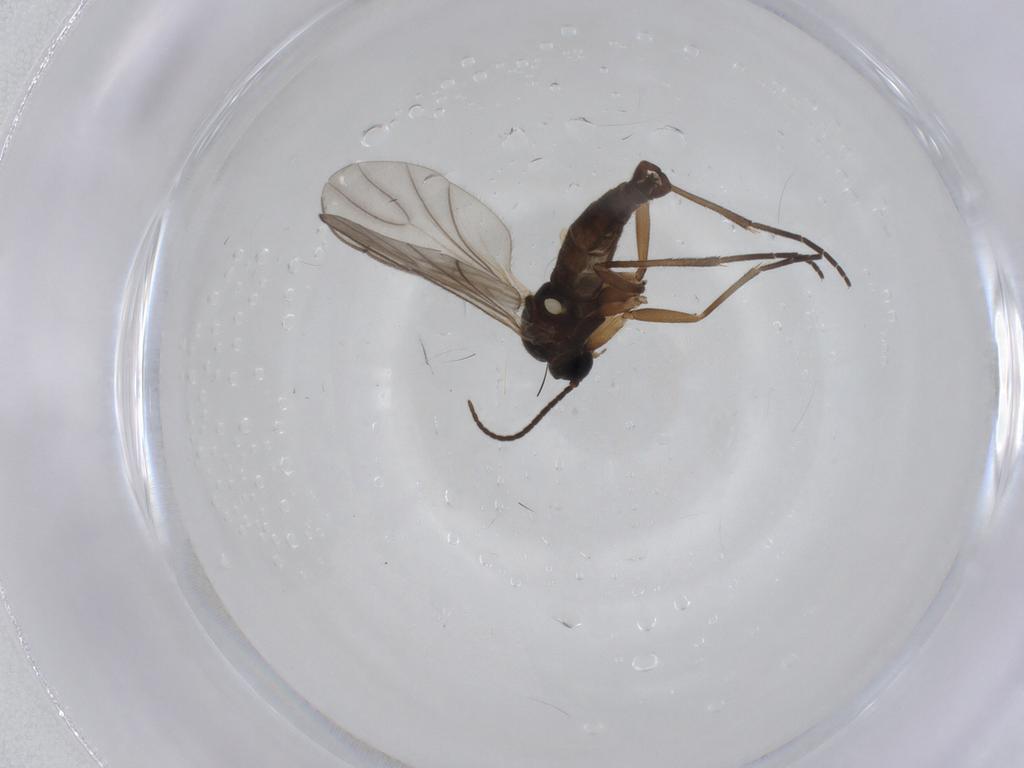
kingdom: Animalia
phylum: Arthropoda
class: Insecta
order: Diptera
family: Sciaridae
